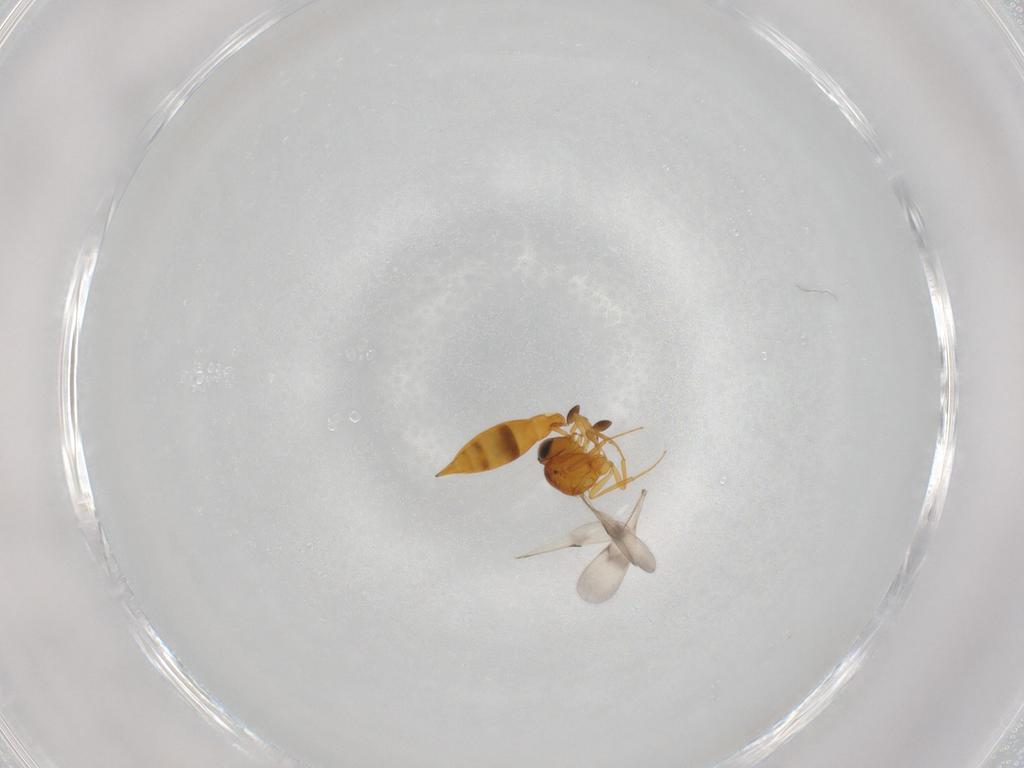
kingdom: Animalia
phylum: Arthropoda
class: Insecta
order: Hymenoptera
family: Scelionidae
